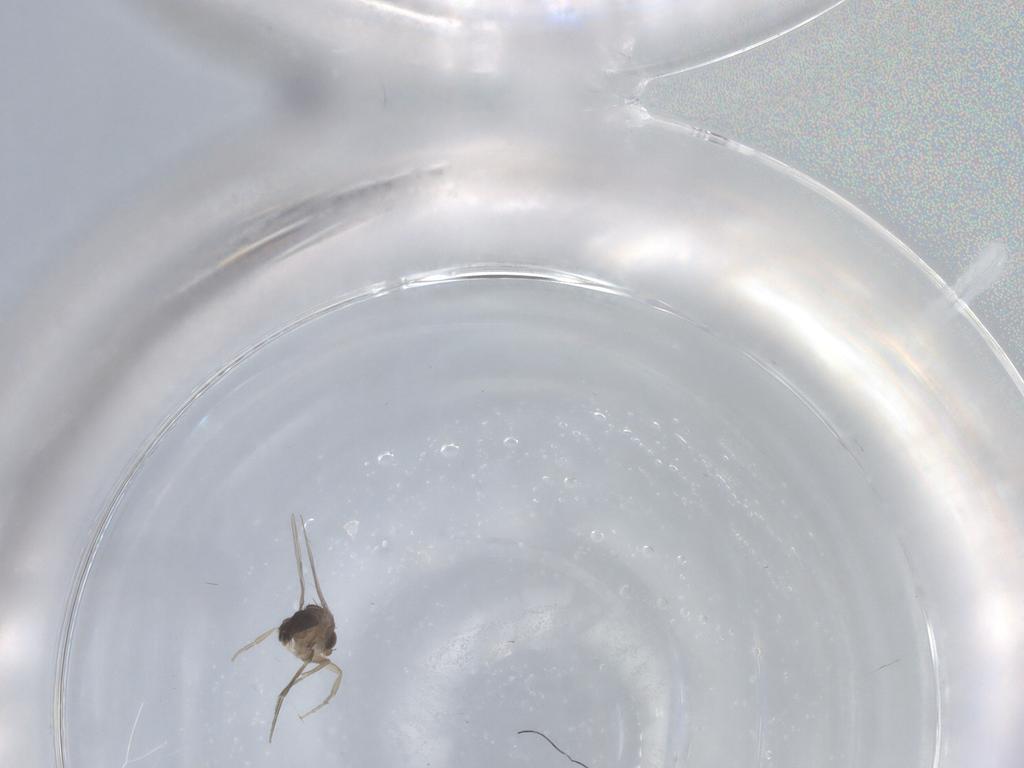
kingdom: Animalia
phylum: Arthropoda
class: Insecta
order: Diptera
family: Phoridae
